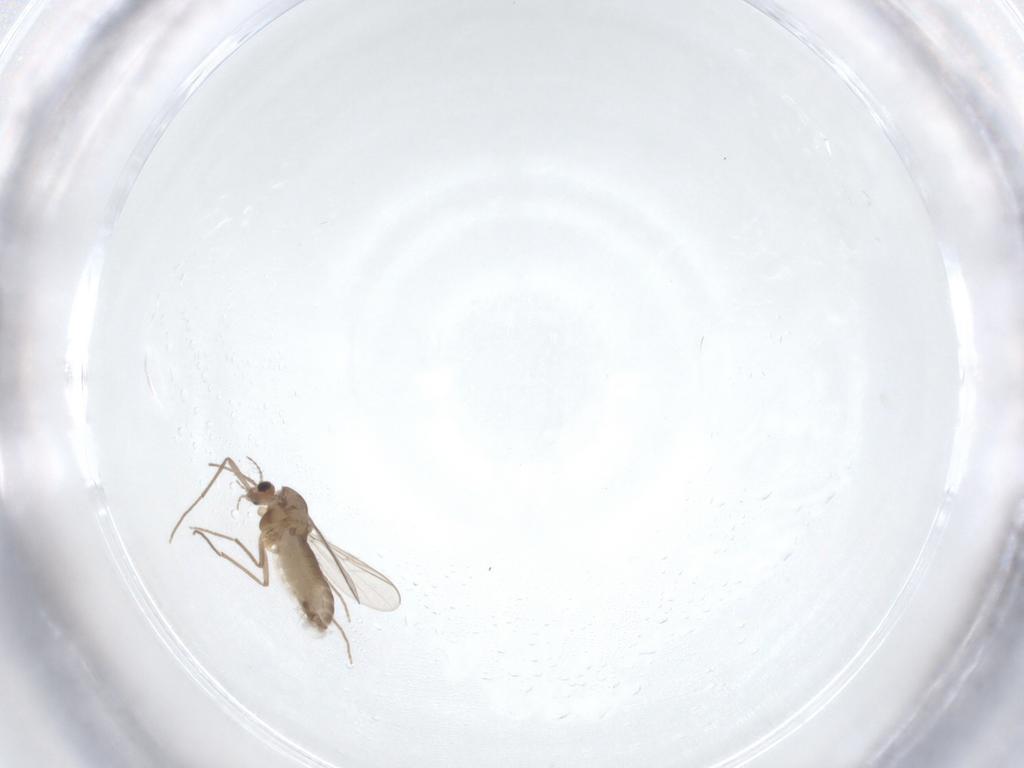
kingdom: Animalia
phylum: Arthropoda
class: Insecta
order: Diptera
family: Chironomidae
